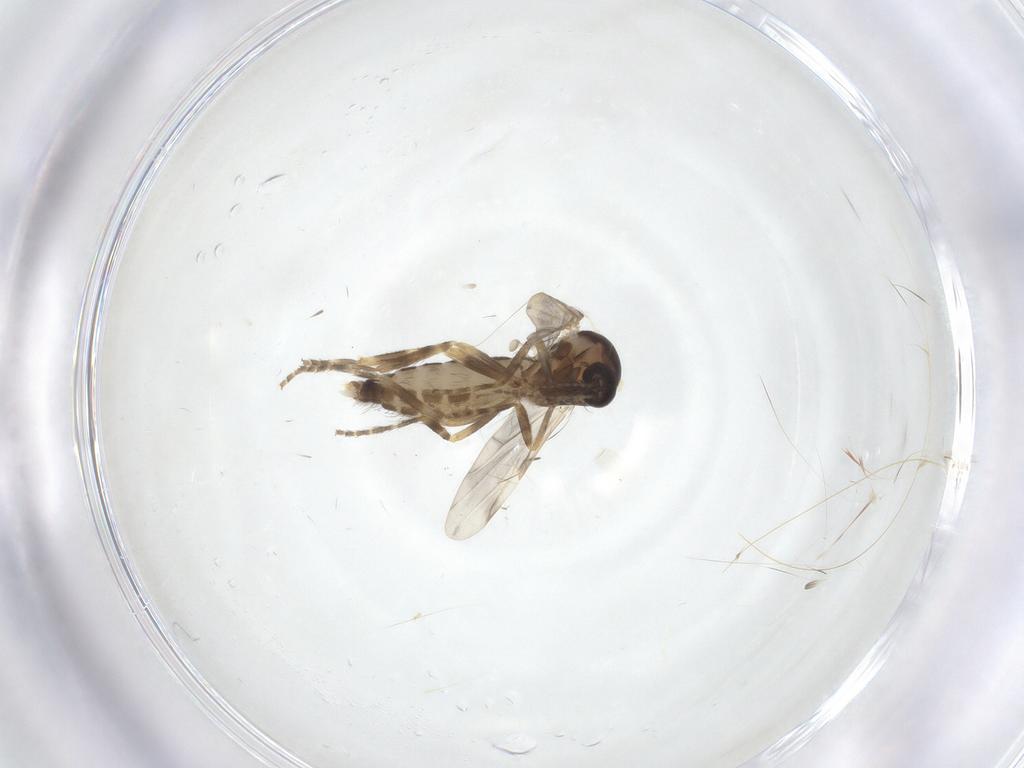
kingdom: Animalia
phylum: Arthropoda
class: Insecta
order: Diptera
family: Ceratopogonidae
